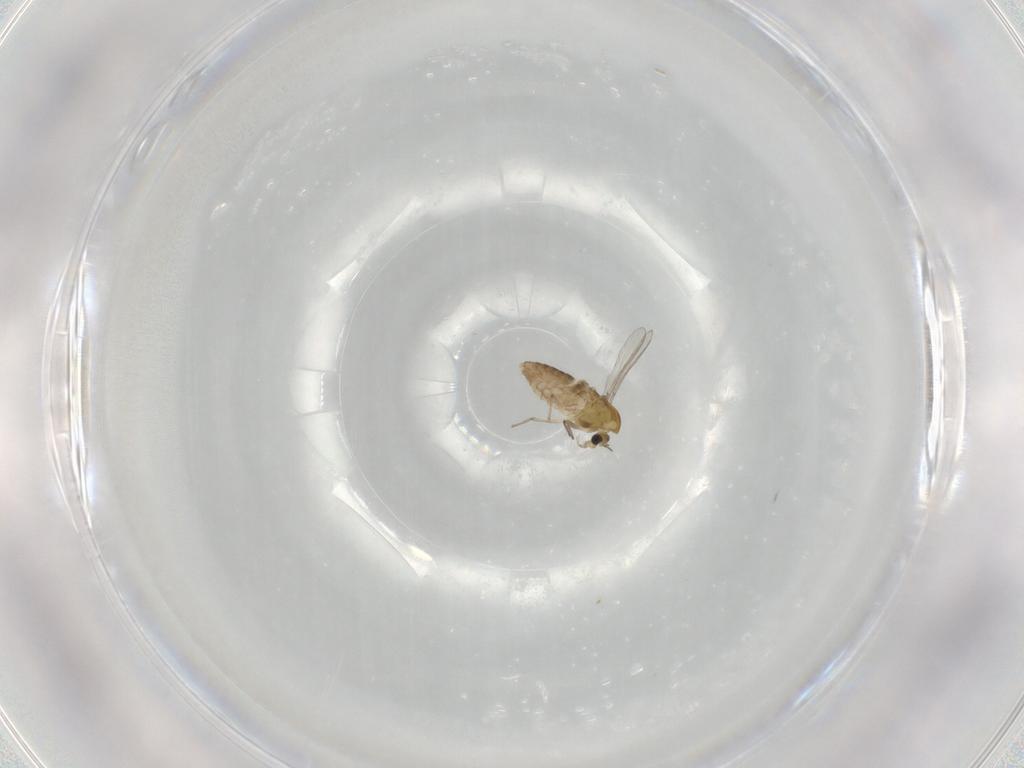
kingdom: Animalia
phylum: Arthropoda
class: Insecta
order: Diptera
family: Chironomidae
